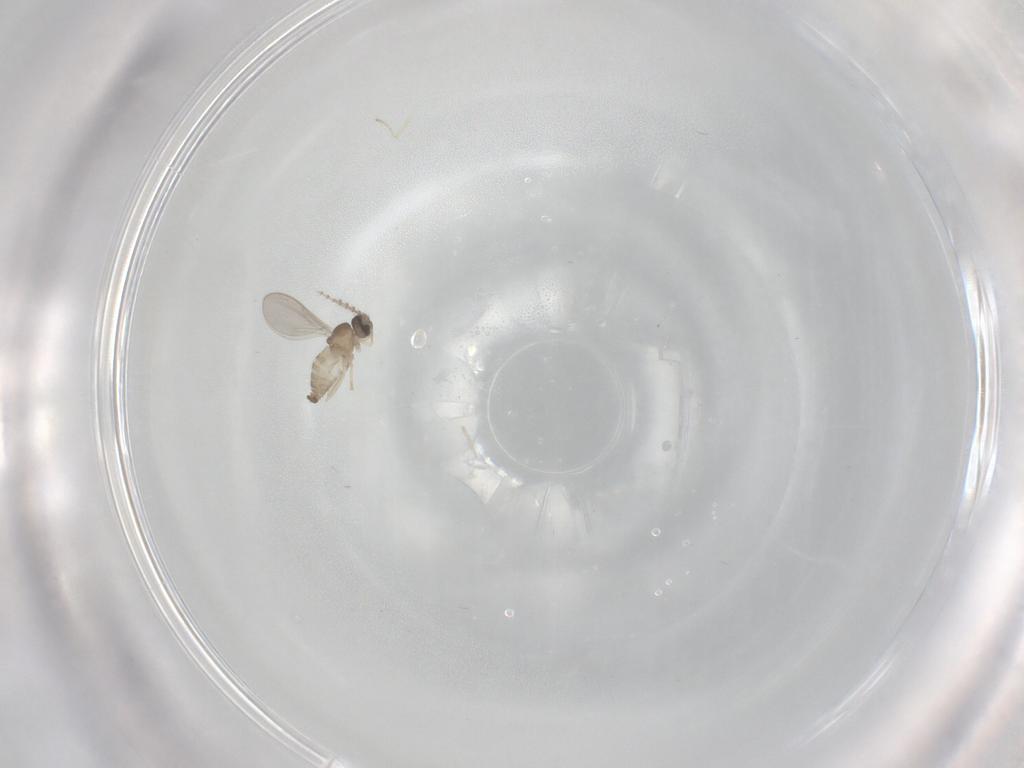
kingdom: Animalia
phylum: Arthropoda
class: Insecta
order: Diptera
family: Cecidomyiidae
